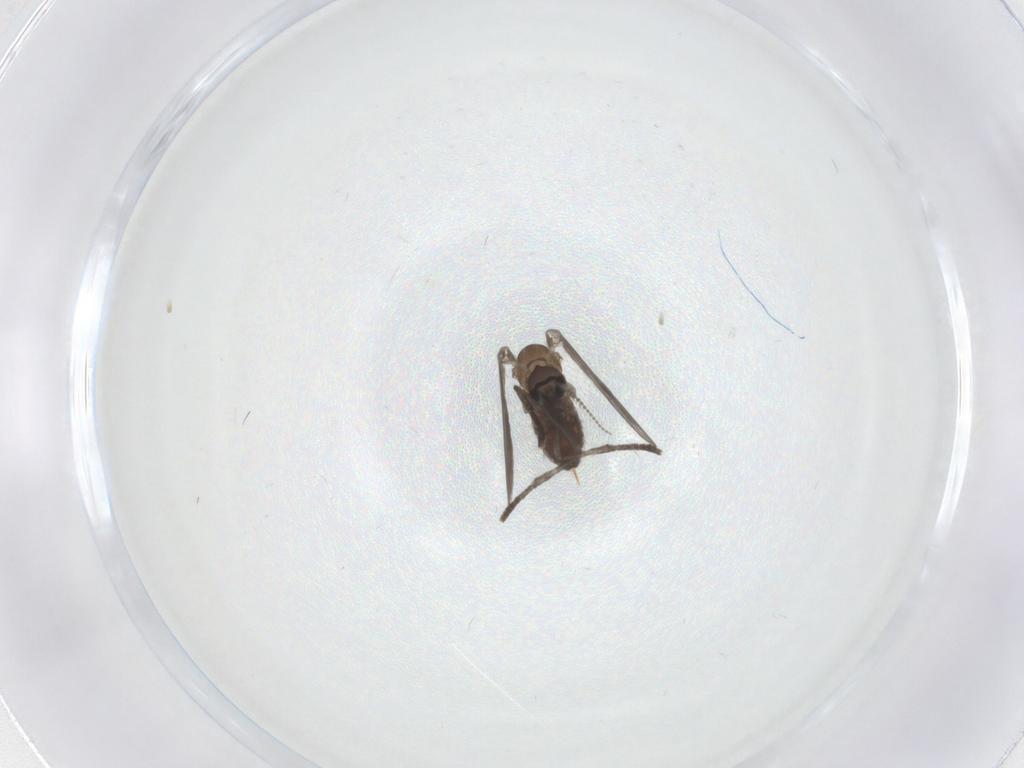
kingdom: Animalia
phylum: Arthropoda
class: Insecta
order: Diptera
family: Psychodidae
